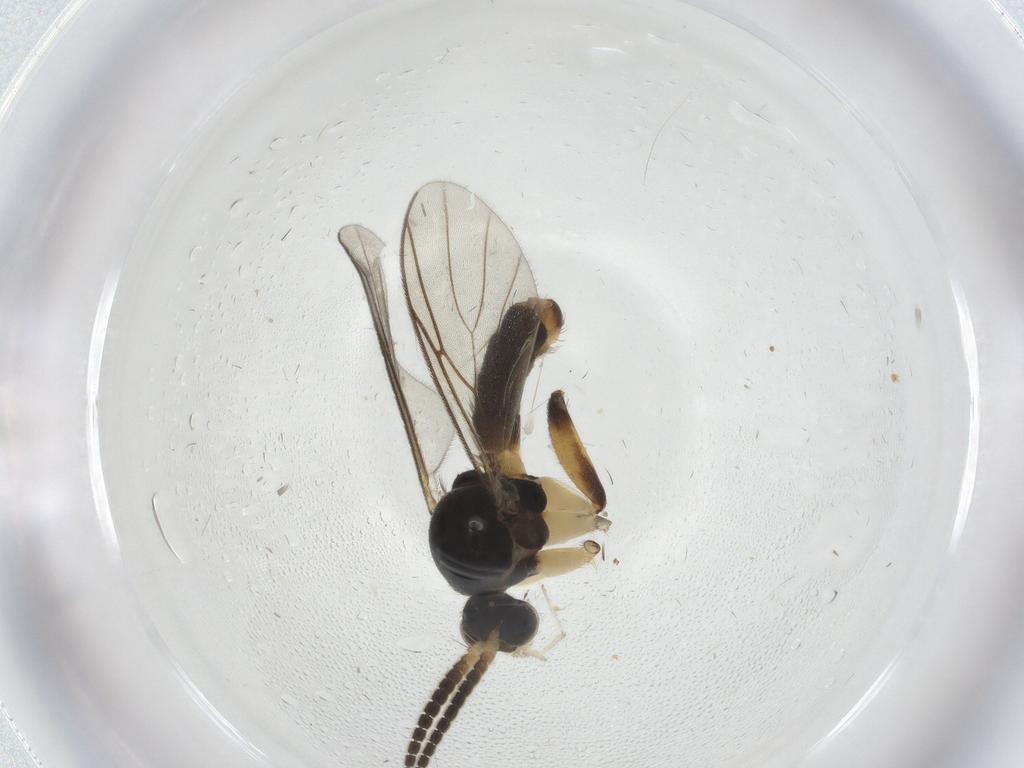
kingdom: Animalia
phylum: Arthropoda
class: Insecta
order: Diptera
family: Mycetophilidae
